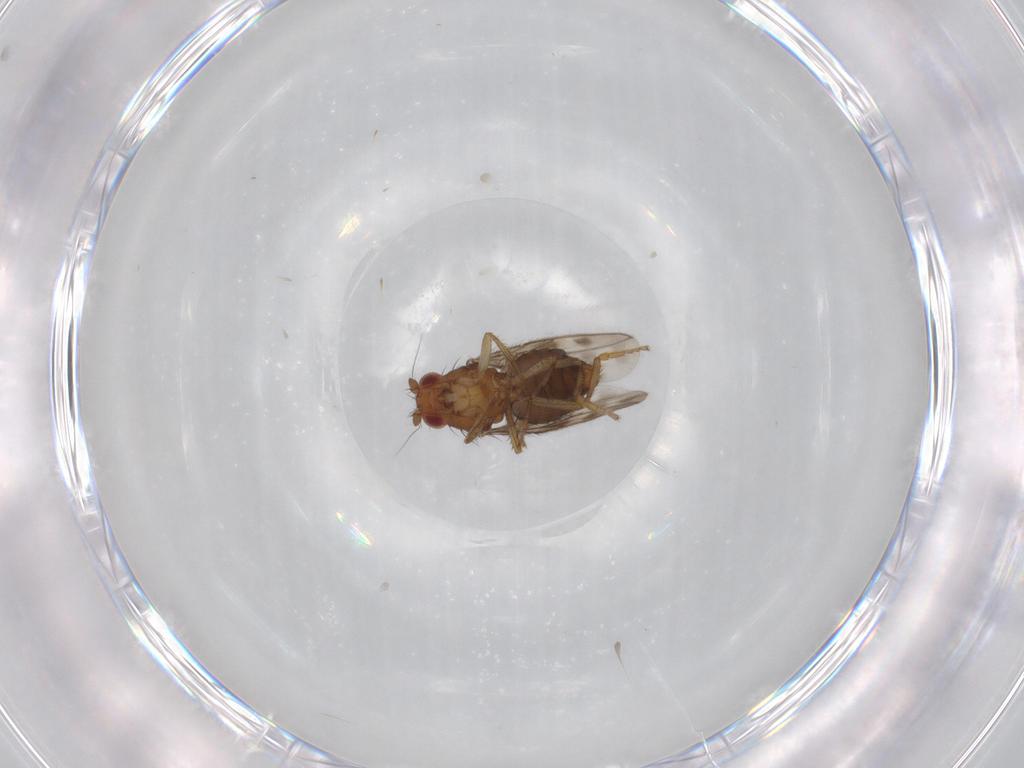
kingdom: Animalia
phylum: Arthropoda
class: Insecta
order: Diptera
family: Sphaeroceridae
